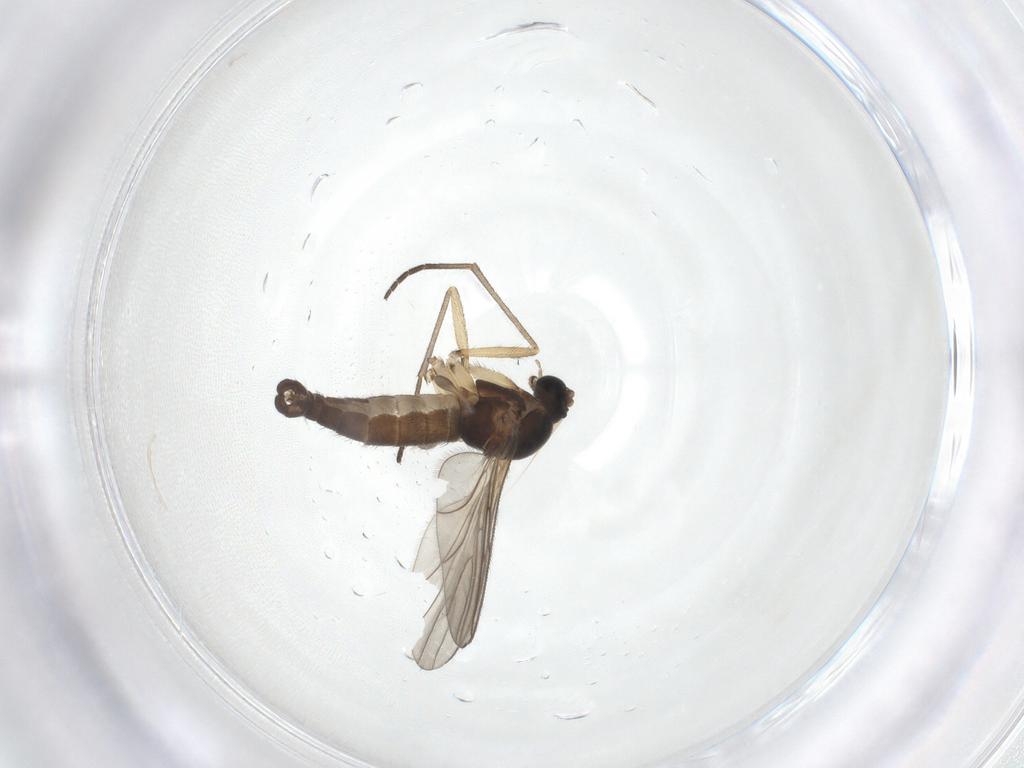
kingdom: Animalia
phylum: Arthropoda
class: Insecta
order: Diptera
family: Sciaridae
